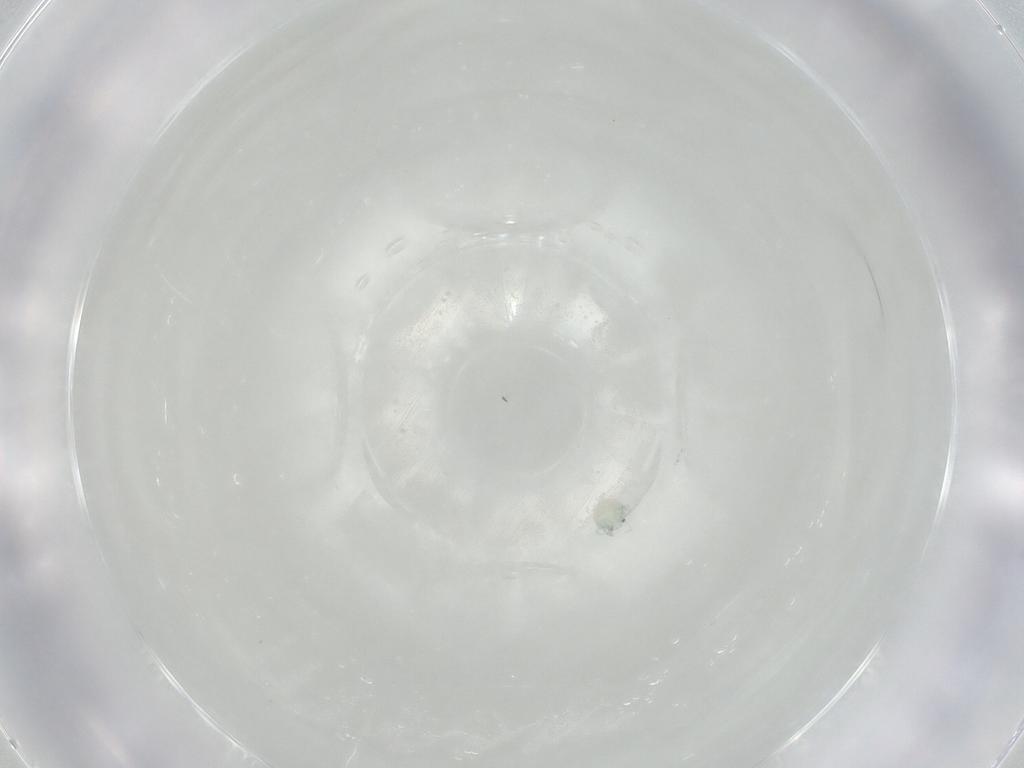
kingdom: Animalia
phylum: Arthropoda
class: Arachnida
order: Trombidiformes
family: Arrenuridae
